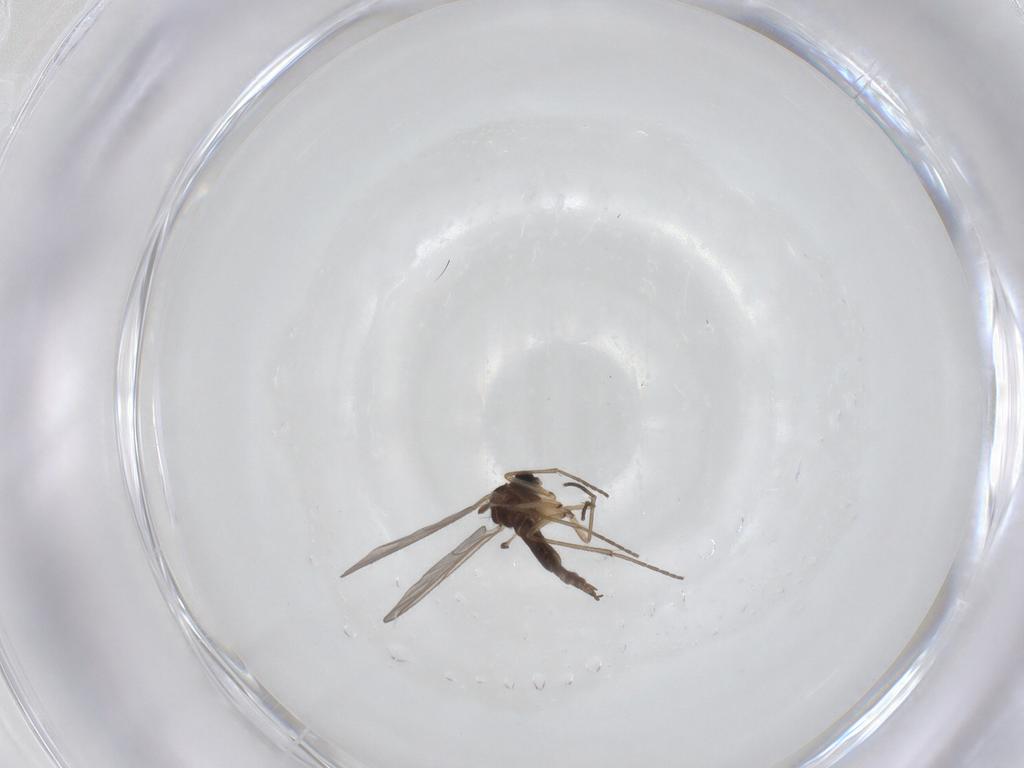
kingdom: Animalia
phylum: Arthropoda
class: Insecta
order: Diptera
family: Sciaridae
